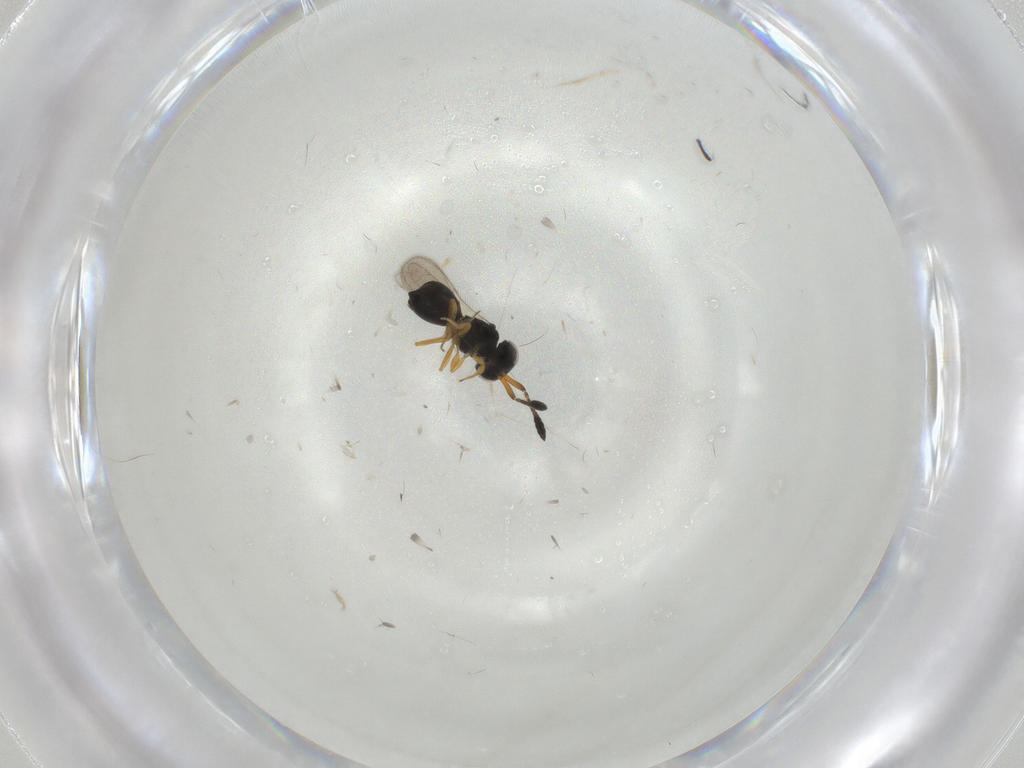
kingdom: Animalia
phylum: Arthropoda
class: Insecta
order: Hymenoptera
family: Scelionidae
